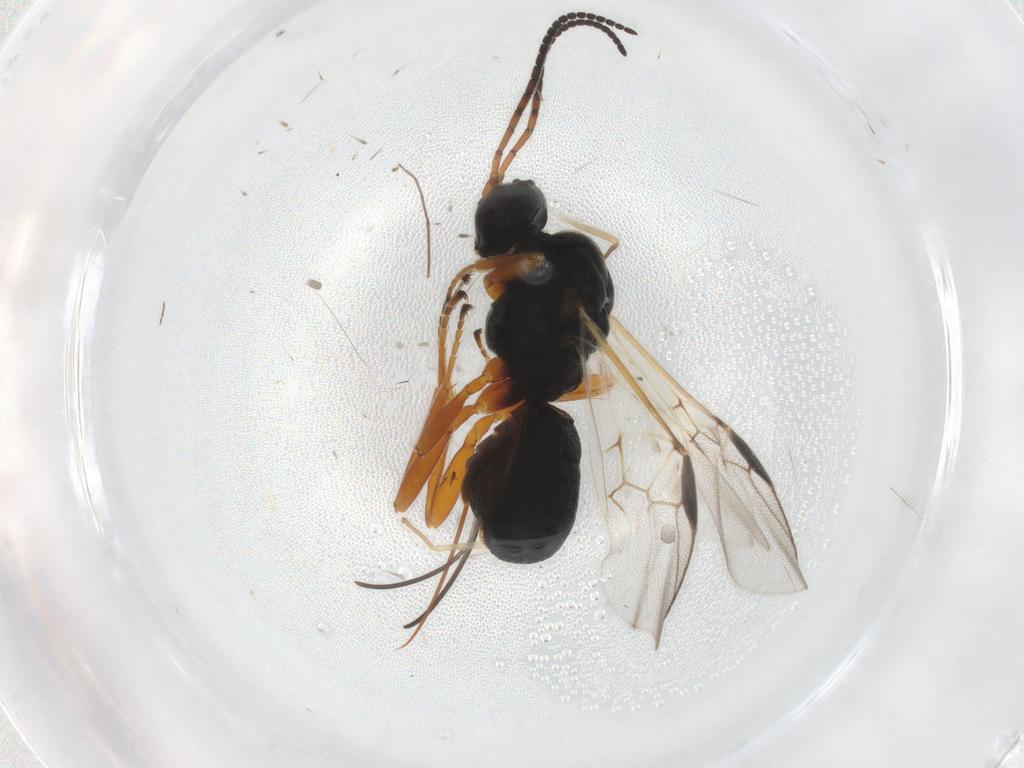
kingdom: Animalia
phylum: Arthropoda
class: Insecta
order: Hymenoptera
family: Braconidae
